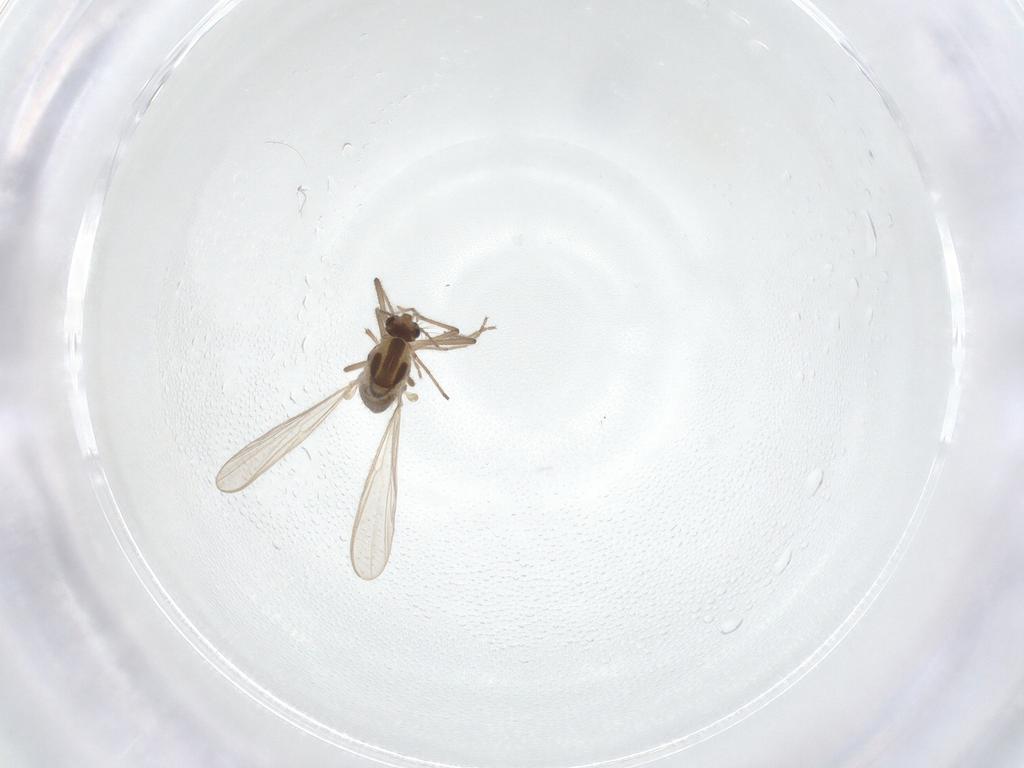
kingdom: Animalia
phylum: Arthropoda
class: Insecta
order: Diptera
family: Chironomidae
